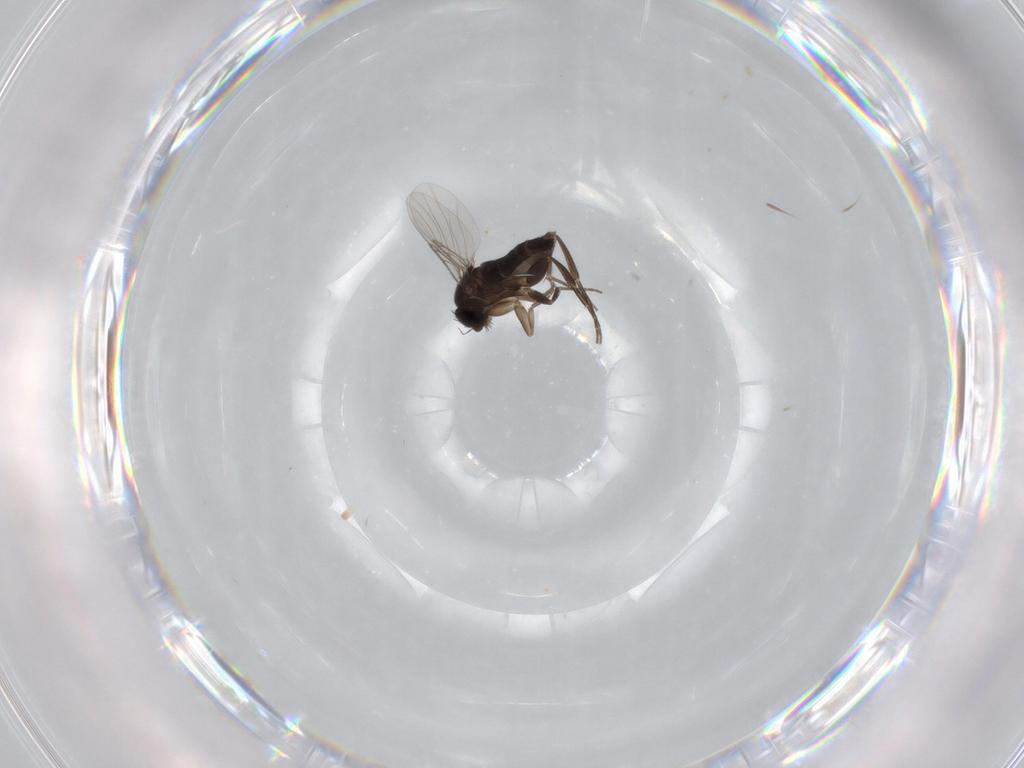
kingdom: Animalia
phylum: Arthropoda
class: Insecta
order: Diptera
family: Phoridae
